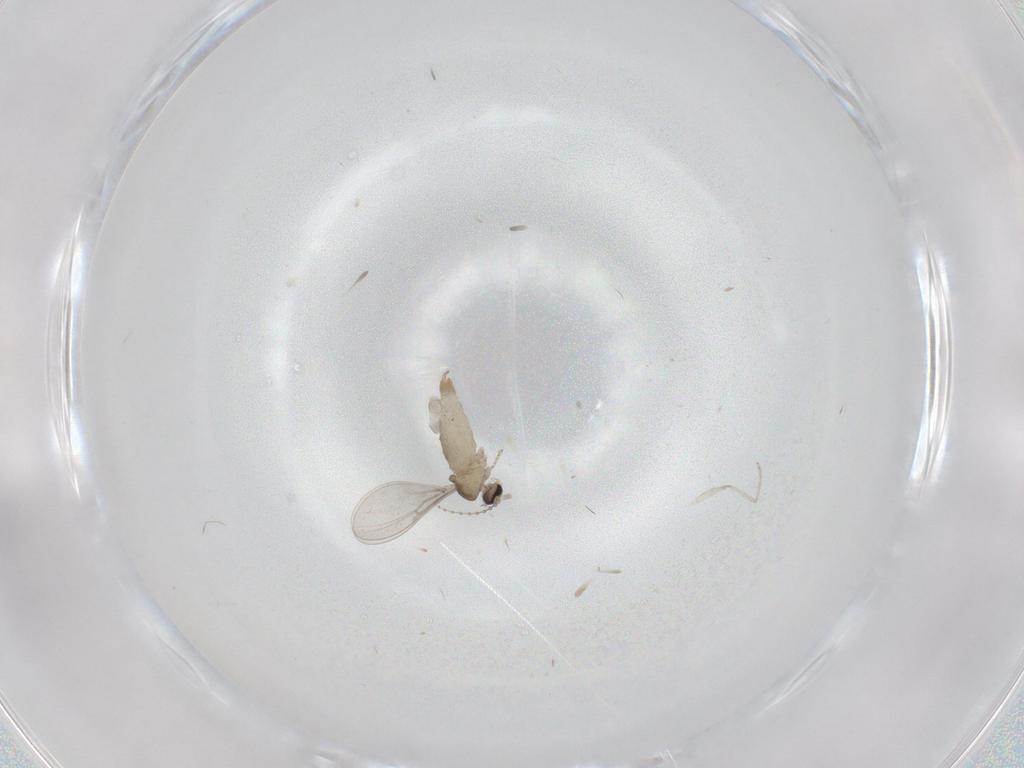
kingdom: Animalia
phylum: Arthropoda
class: Insecta
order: Diptera
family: Cecidomyiidae
